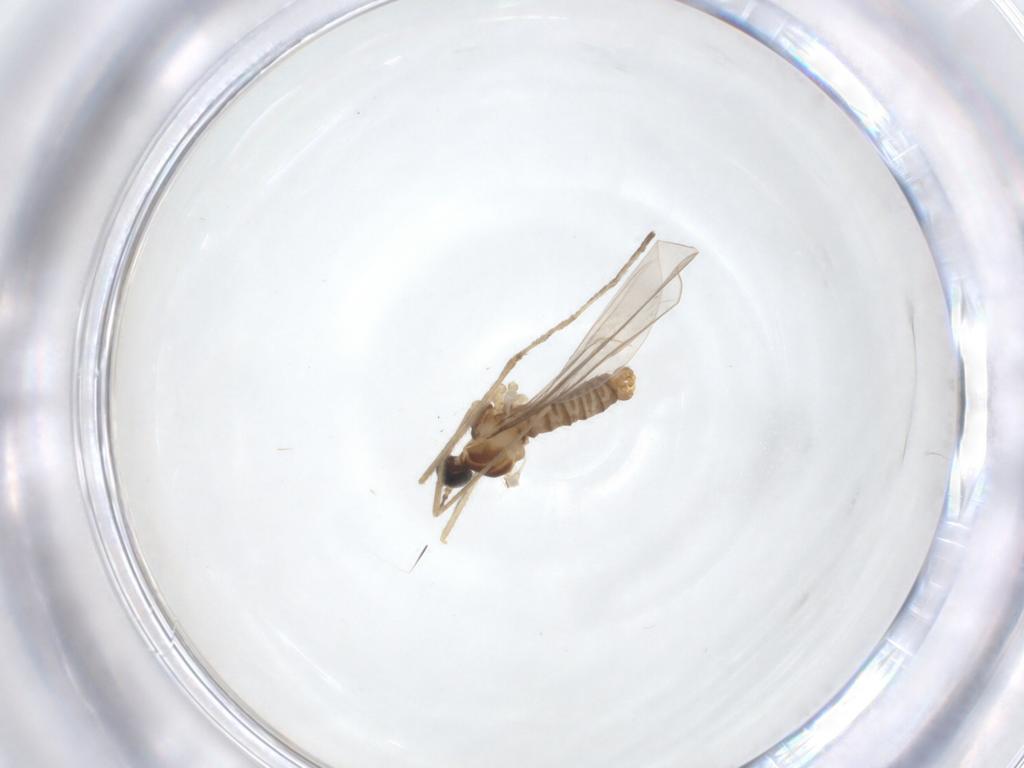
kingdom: Animalia
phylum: Arthropoda
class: Insecta
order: Diptera
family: Cecidomyiidae
